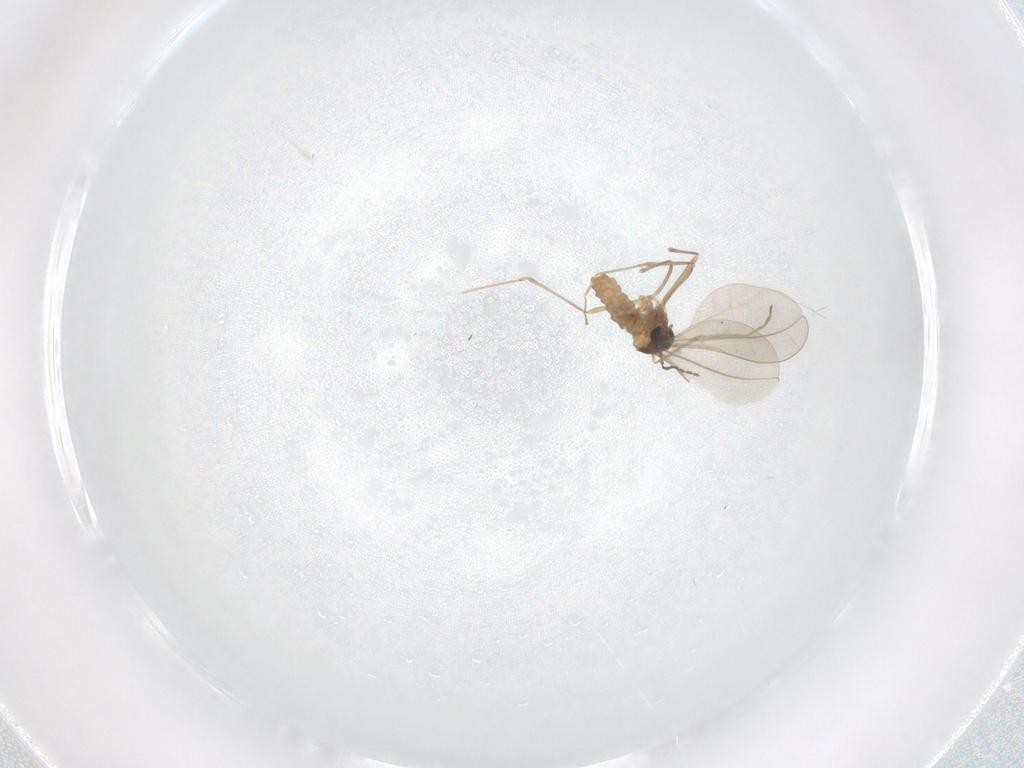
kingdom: Animalia
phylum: Arthropoda
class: Insecta
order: Diptera
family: Cecidomyiidae
